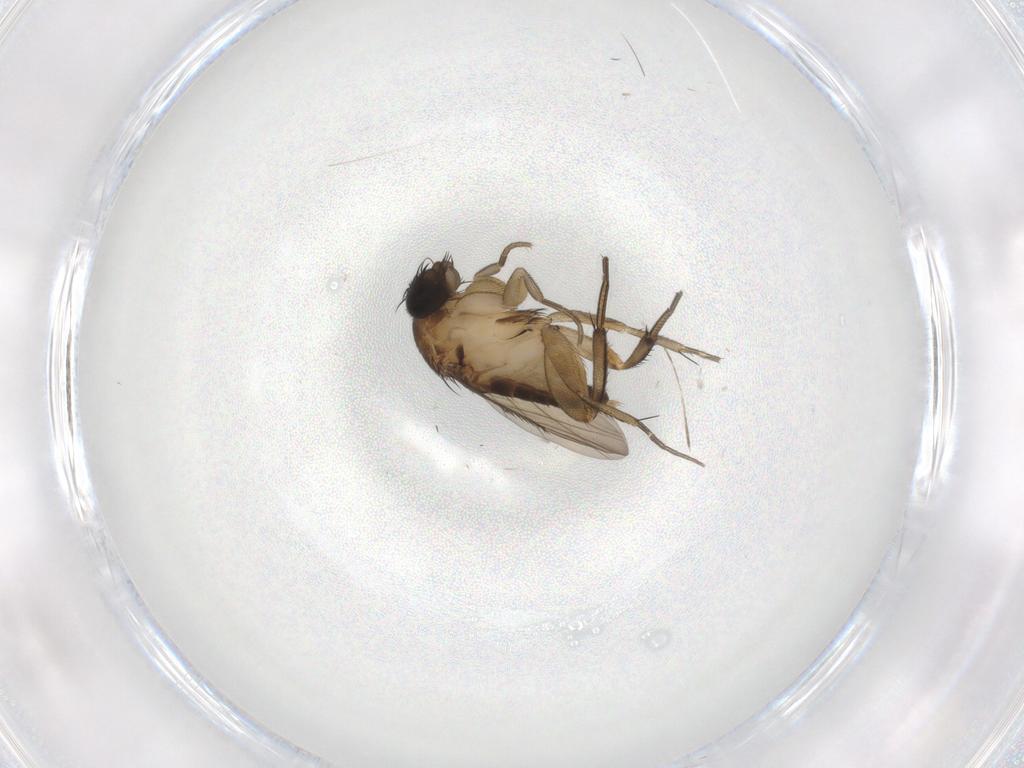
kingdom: Animalia
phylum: Arthropoda
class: Insecta
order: Diptera
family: Phoridae
